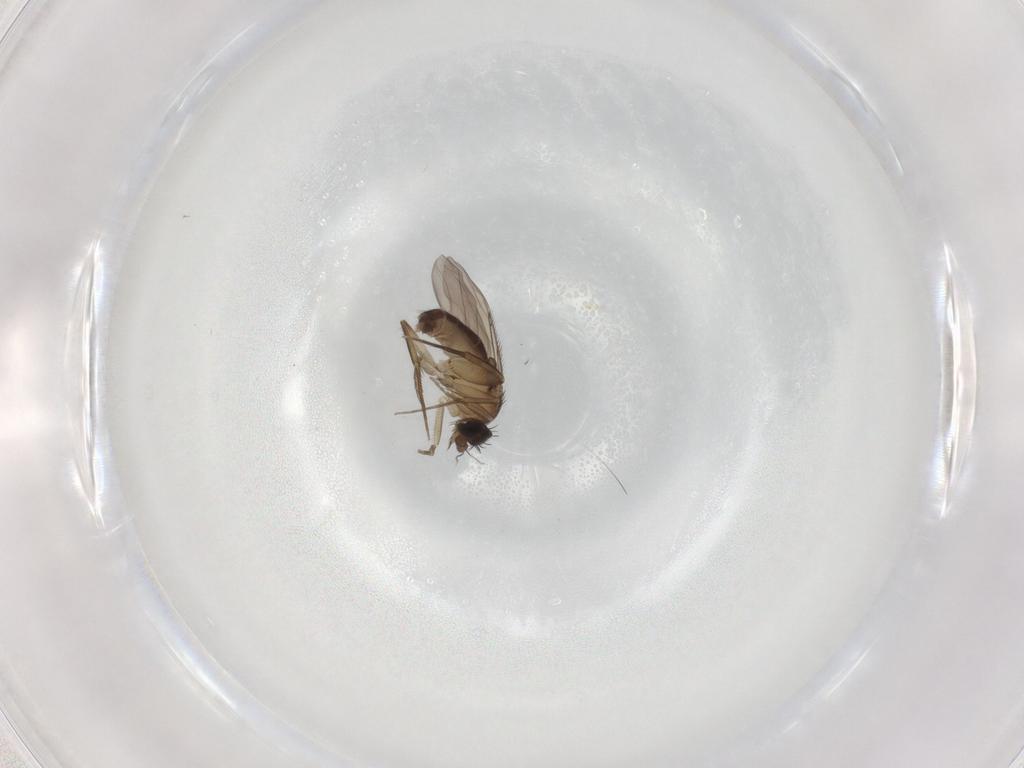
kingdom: Animalia
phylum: Arthropoda
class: Insecta
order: Diptera
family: Phoridae
